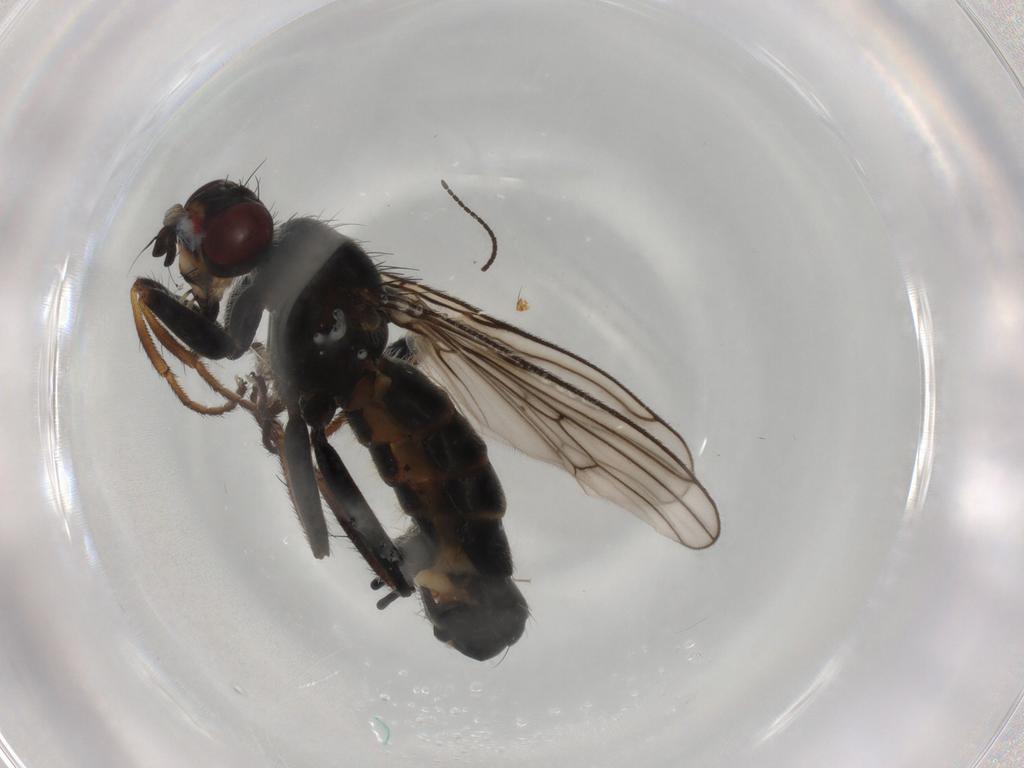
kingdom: Animalia
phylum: Arthropoda
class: Insecta
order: Diptera
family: Scathophagidae
